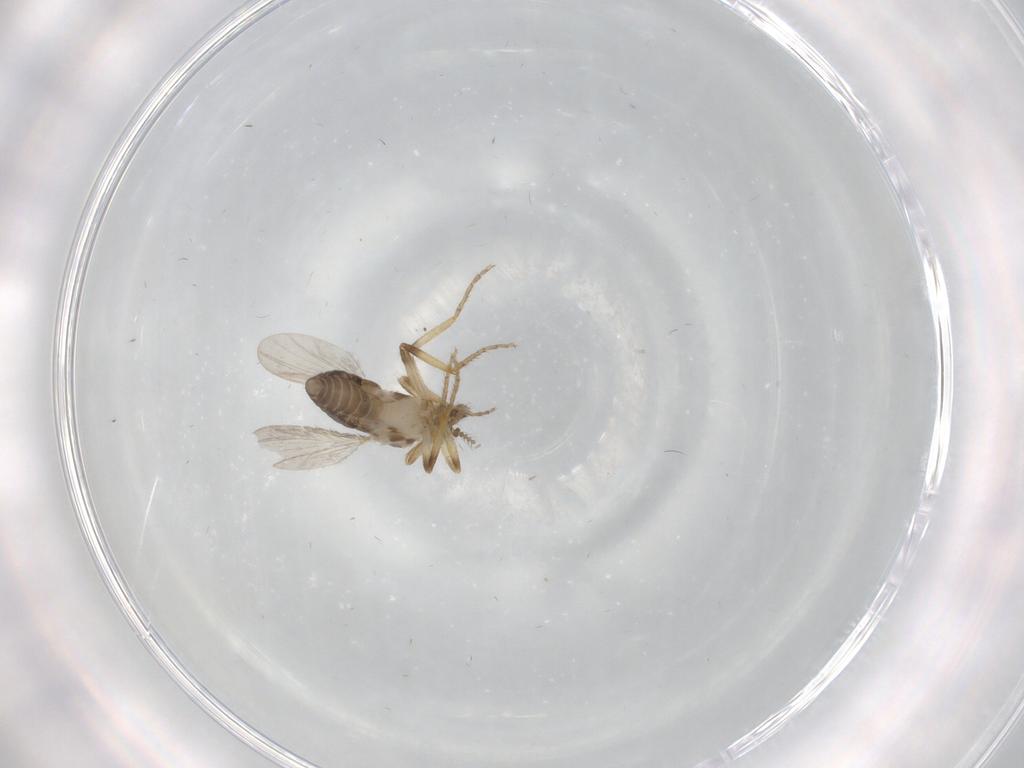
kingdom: Animalia
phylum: Arthropoda
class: Insecta
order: Diptera
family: Ceratopogonidae
